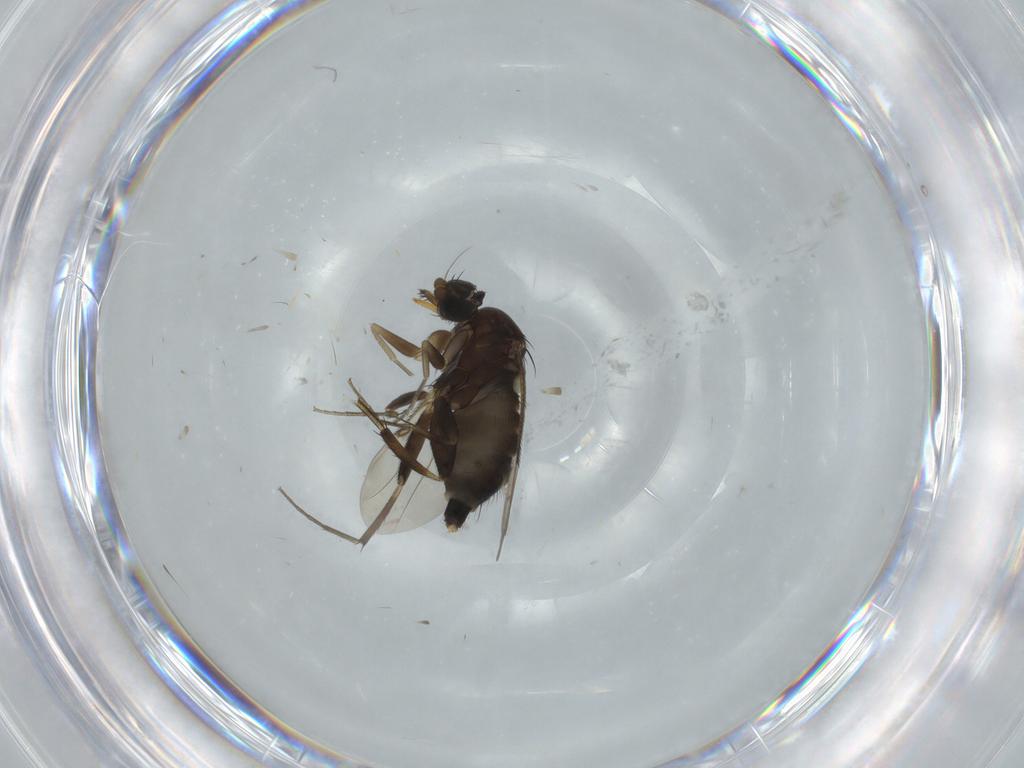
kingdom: Animalia
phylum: Arthropoda
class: Insecta
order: Diptera
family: Phoridae
